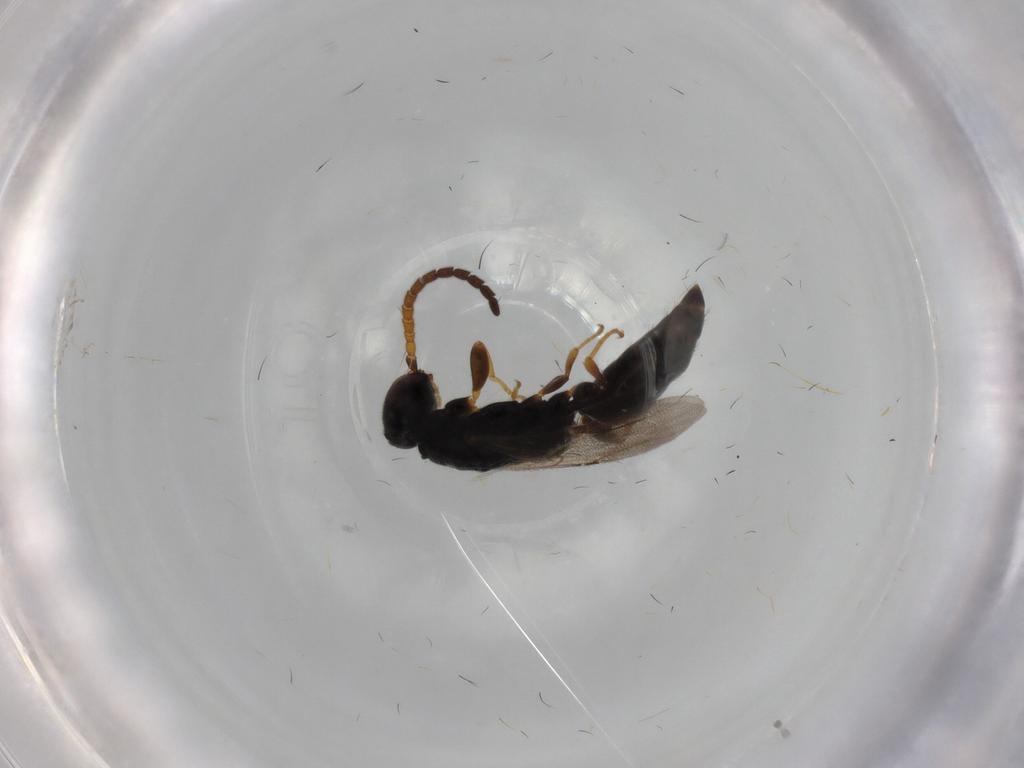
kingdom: Animalia
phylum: Arthropoda
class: Insecta
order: Hymenoptera
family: Bethylidae
